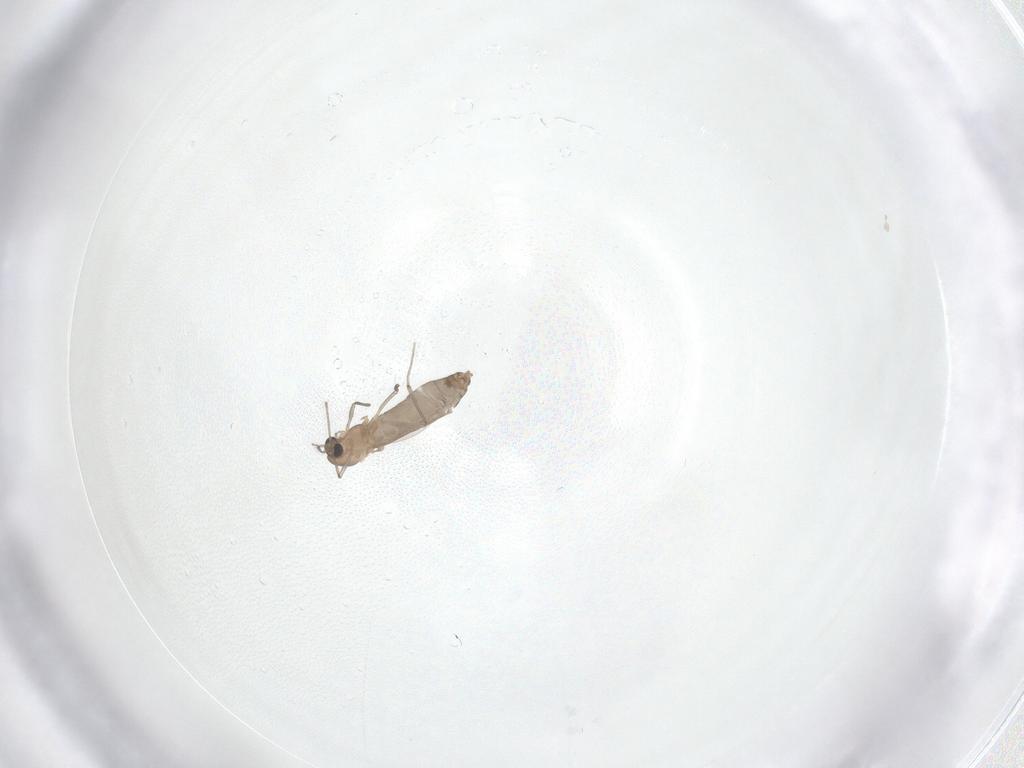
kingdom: Animalia
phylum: Arthropoda
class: Insecta
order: Diptera
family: Chironomidae
